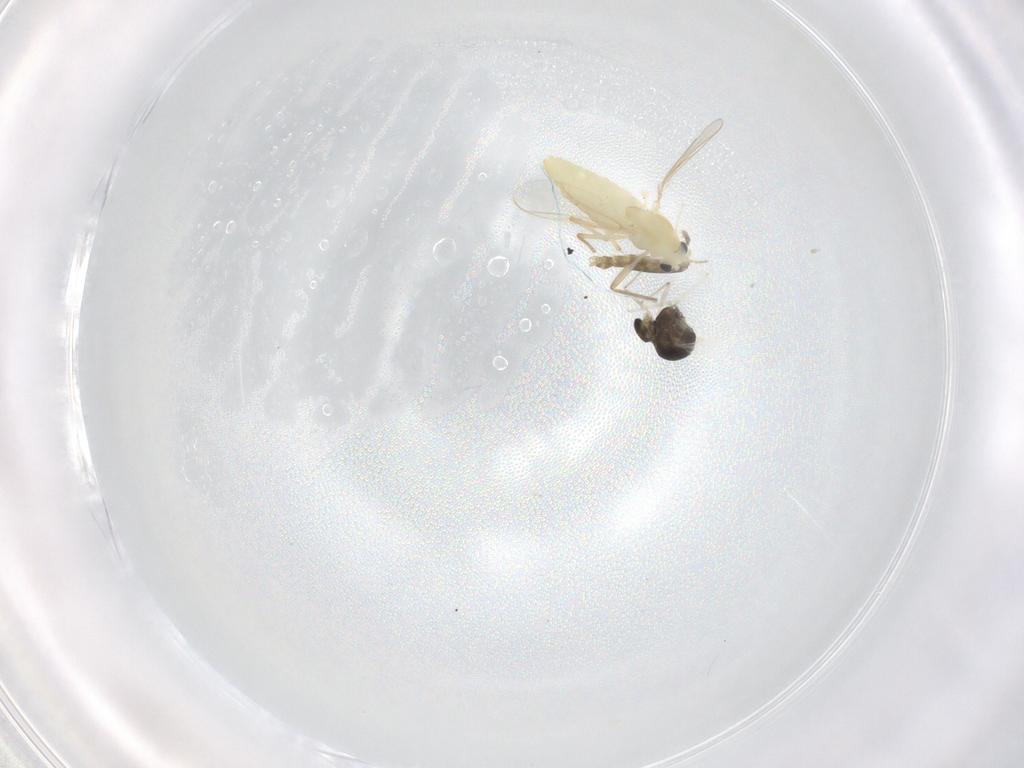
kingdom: Animalia
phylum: Arthropoda
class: Insecta
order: Diptera
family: Chironomidae
